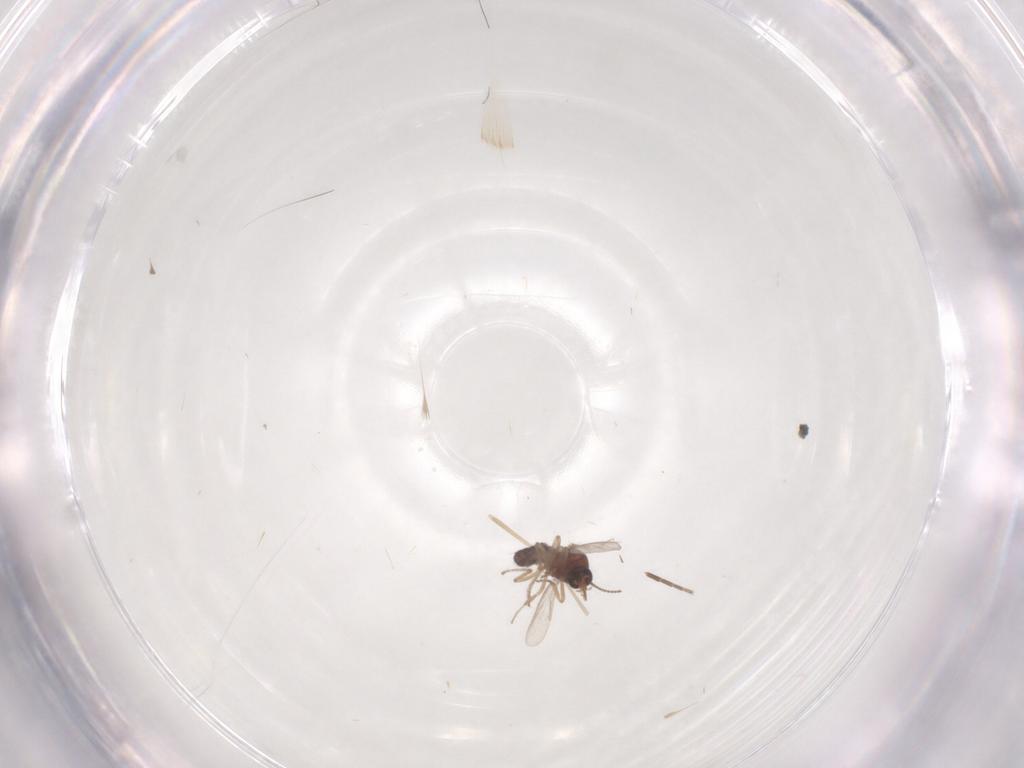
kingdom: Animalia
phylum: Arthropoda
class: Insecta
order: Diptera
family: Ceratopogonidae
